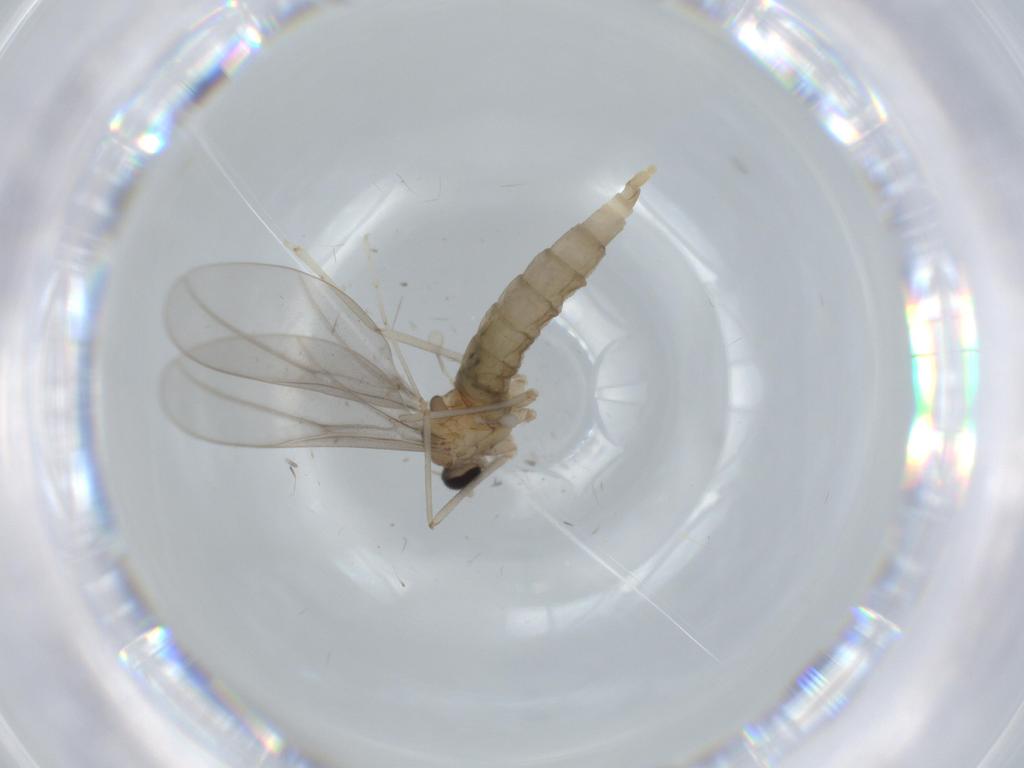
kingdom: Animalia
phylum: Arthropoda
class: Insecta
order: Diptera
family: Cecidomyiidae
